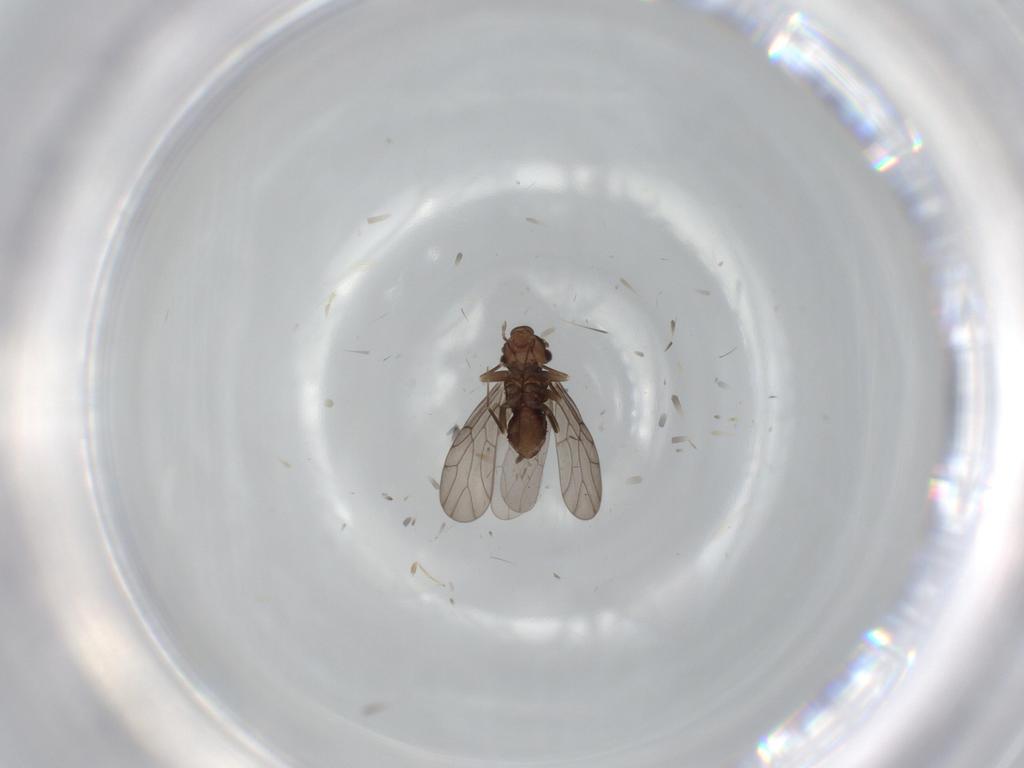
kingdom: Animalia
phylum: Arthropoda
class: Insecta
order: Psocodea
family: Lepidopsocidae
